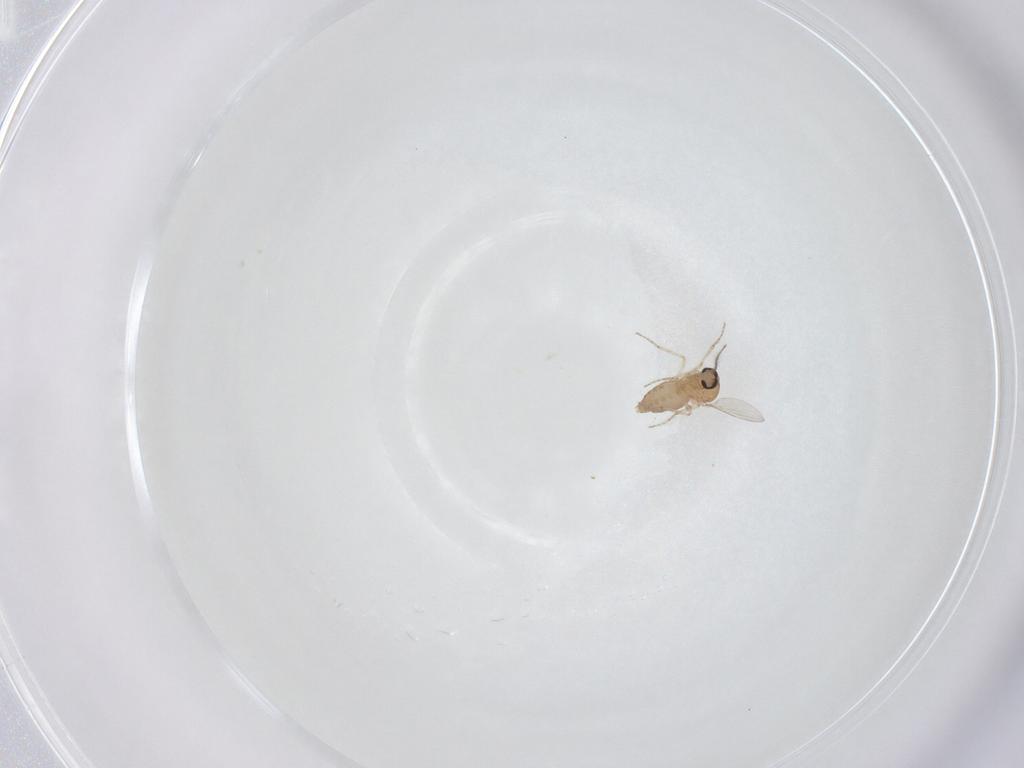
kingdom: Animalia
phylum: Arthropoda
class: Insecta
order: Diptera
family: Ceratopogonidae
